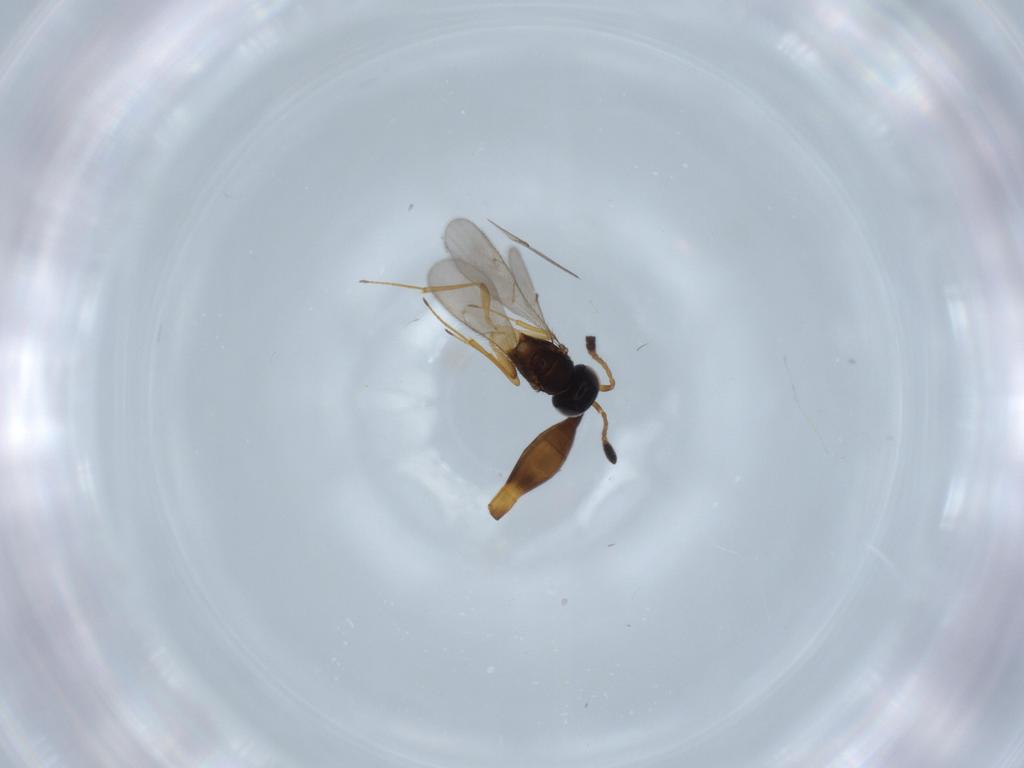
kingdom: Animalia
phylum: Arthropoda
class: Insecta
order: Hymenoptera
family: Scelionidae
